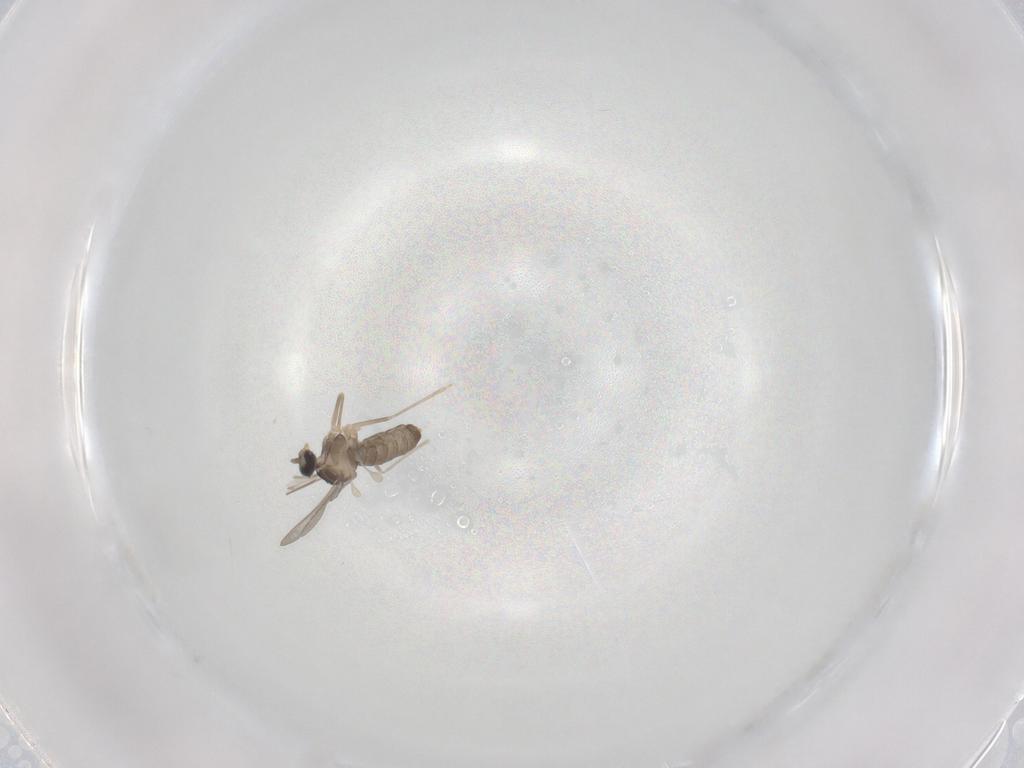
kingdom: Animalia
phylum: Arthropoda
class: Insecta
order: Diptera
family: Cecidomyiidae
